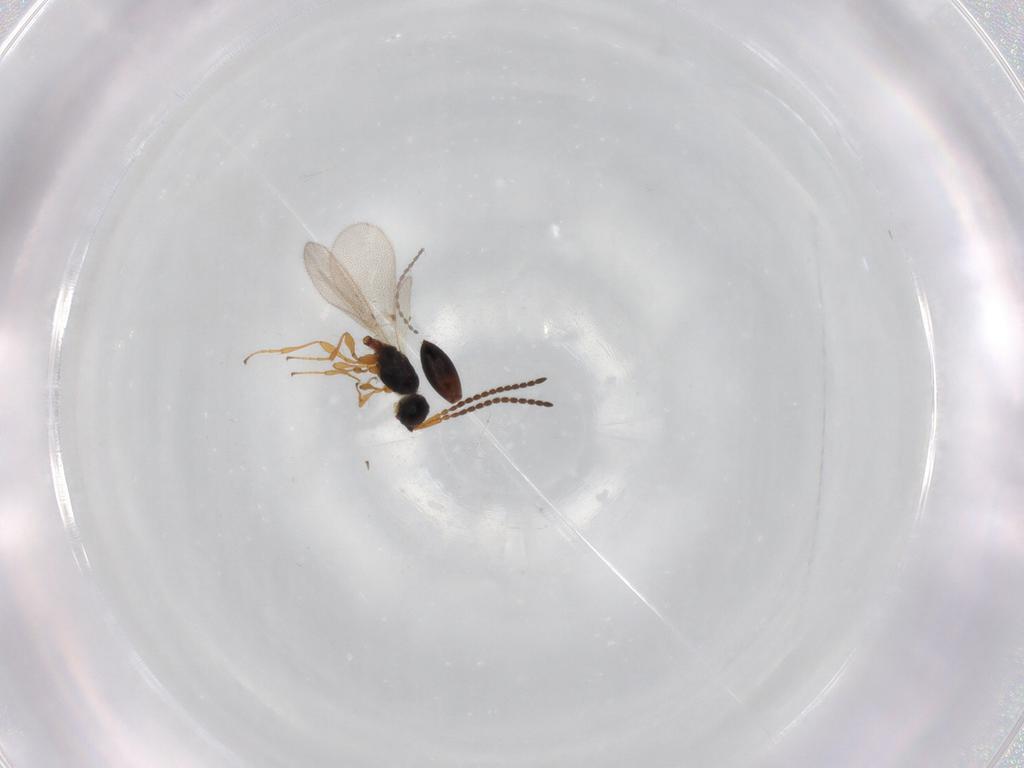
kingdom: Animalia
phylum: Arthropoda
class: Insecta
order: Hymenoptera
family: Diapriidae
